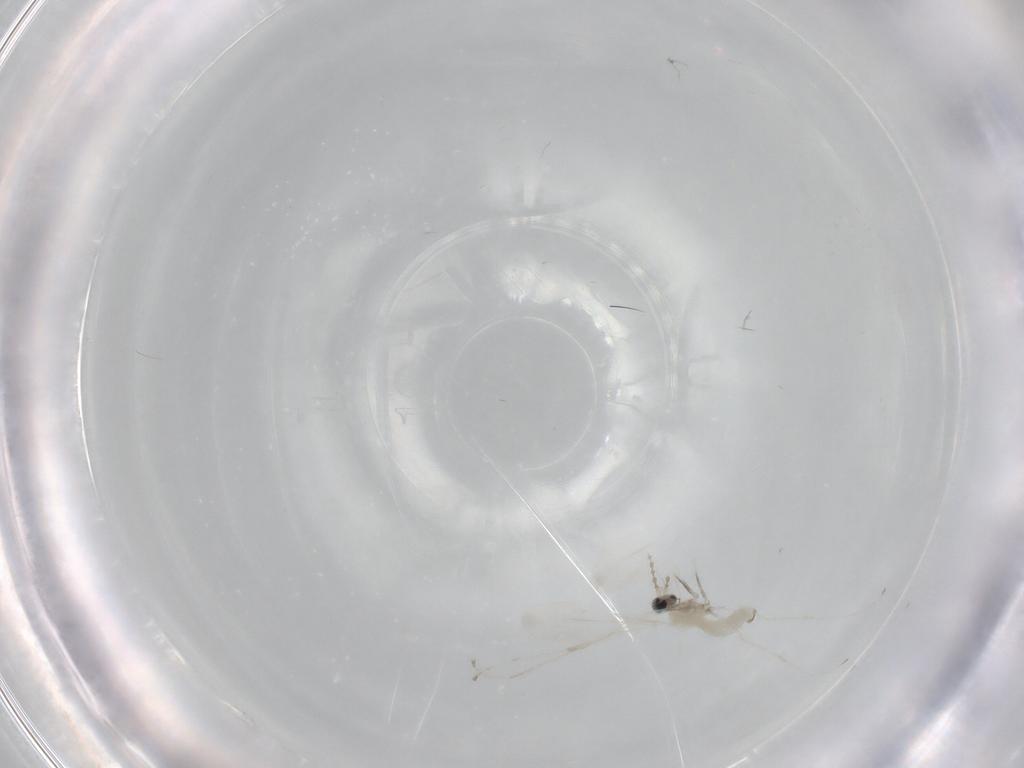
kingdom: Animalia
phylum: Arthropoda
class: Insecta
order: Diptera
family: Cecidomyiidae
